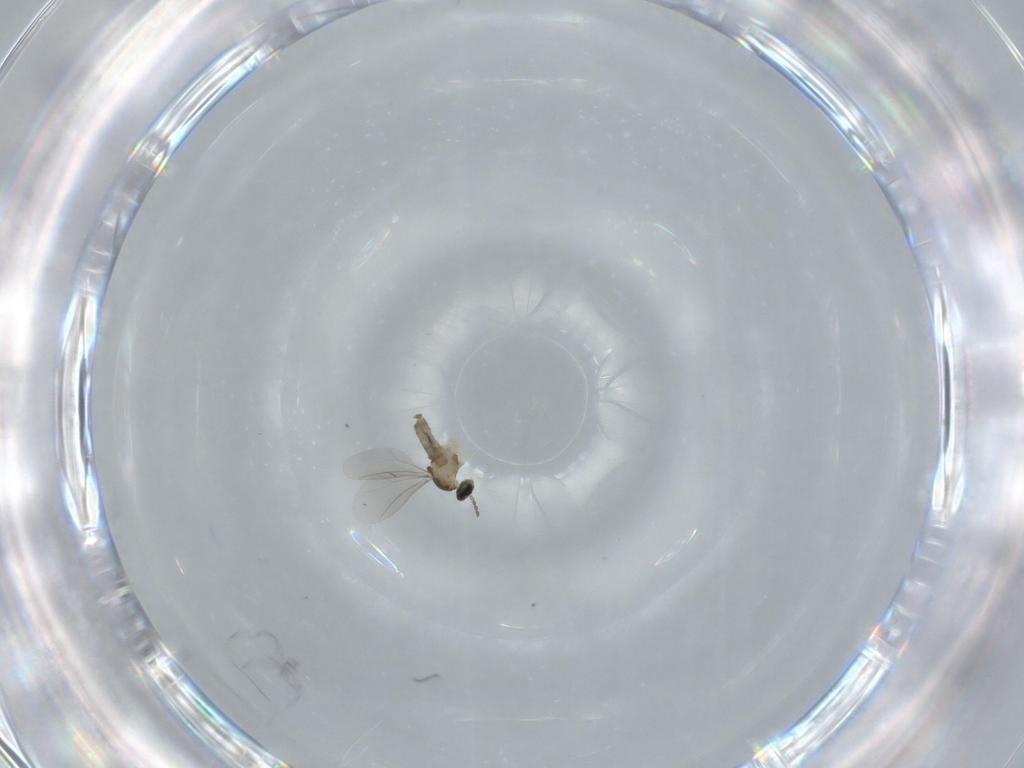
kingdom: Animalia
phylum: Arthropoda
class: Insecta
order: Diptera
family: Cecidomyiidae
